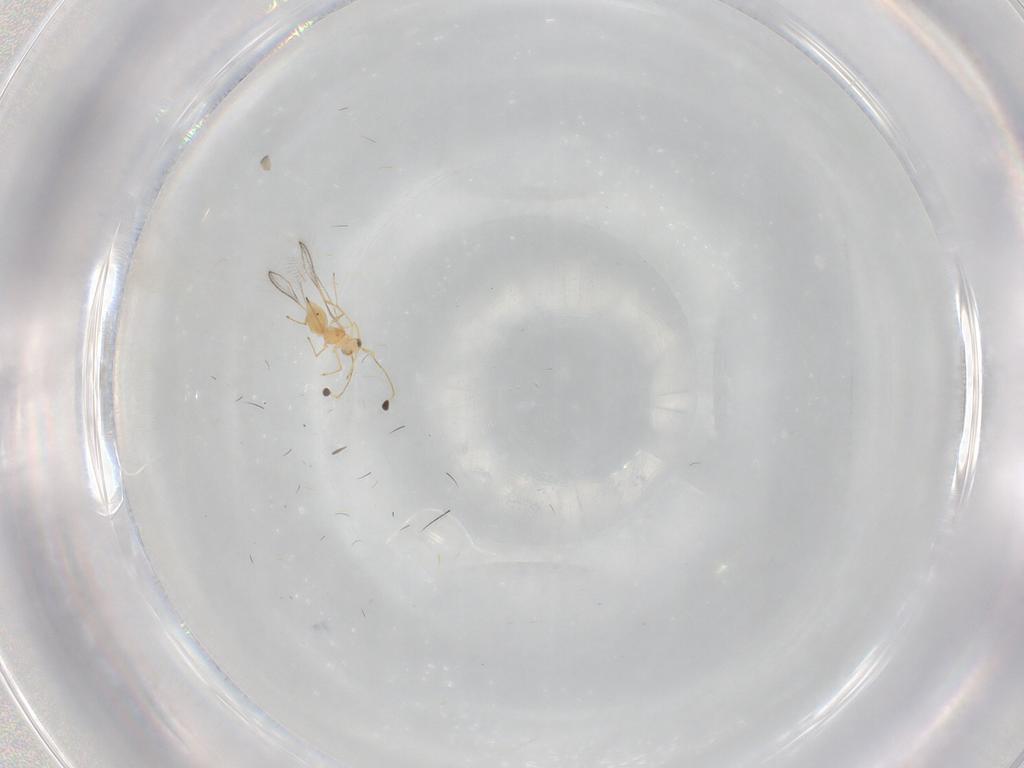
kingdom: Animalia
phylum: Arthropoda
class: Insecta
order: Hymenoptera
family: Mymaridae
